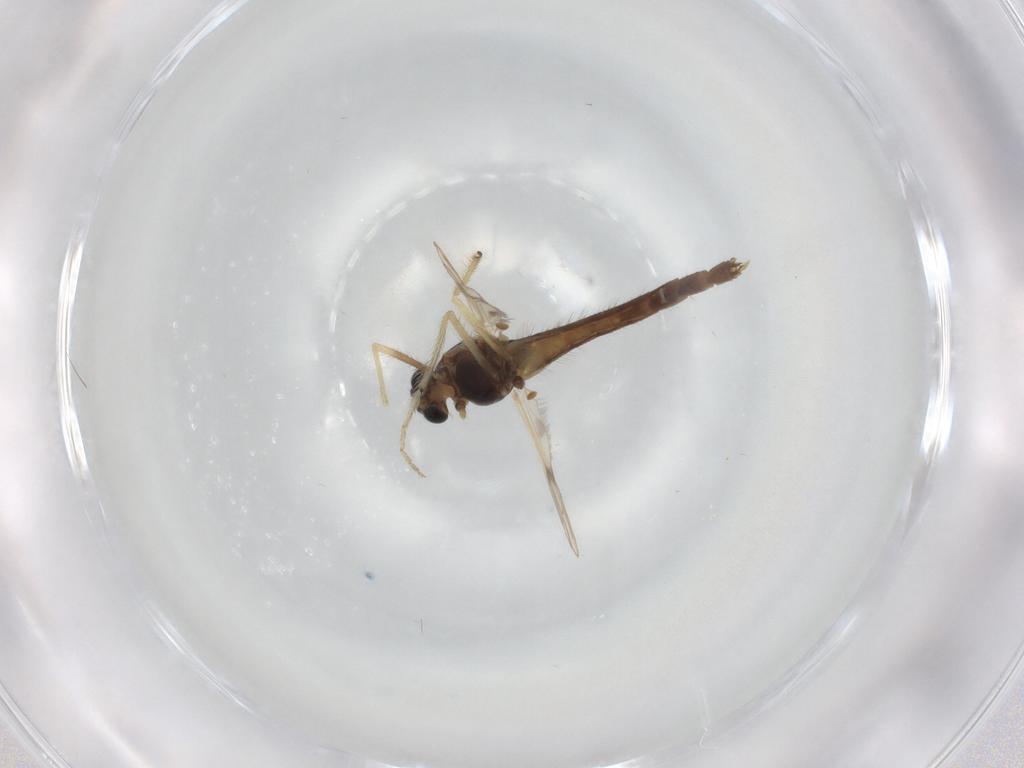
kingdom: Animalia
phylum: Arthropoda
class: Insecta
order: Diptera
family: Chironomidae
